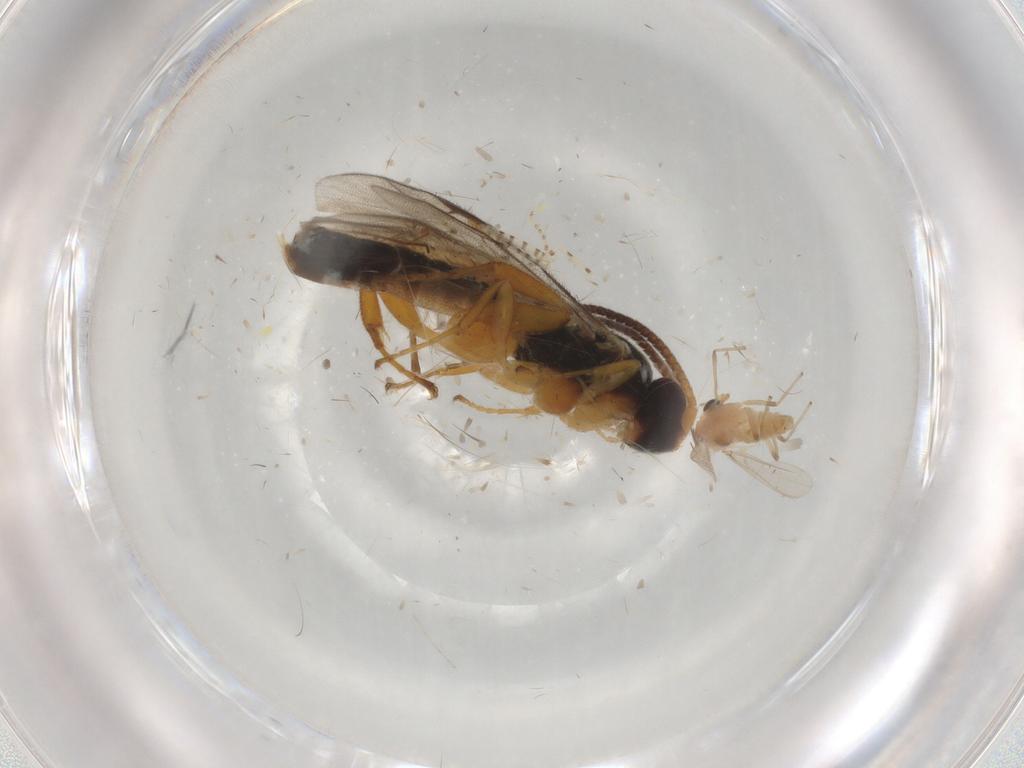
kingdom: Animalia
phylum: Arthropoda
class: Insecta
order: Hymenoptera
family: Ichneumonidae
